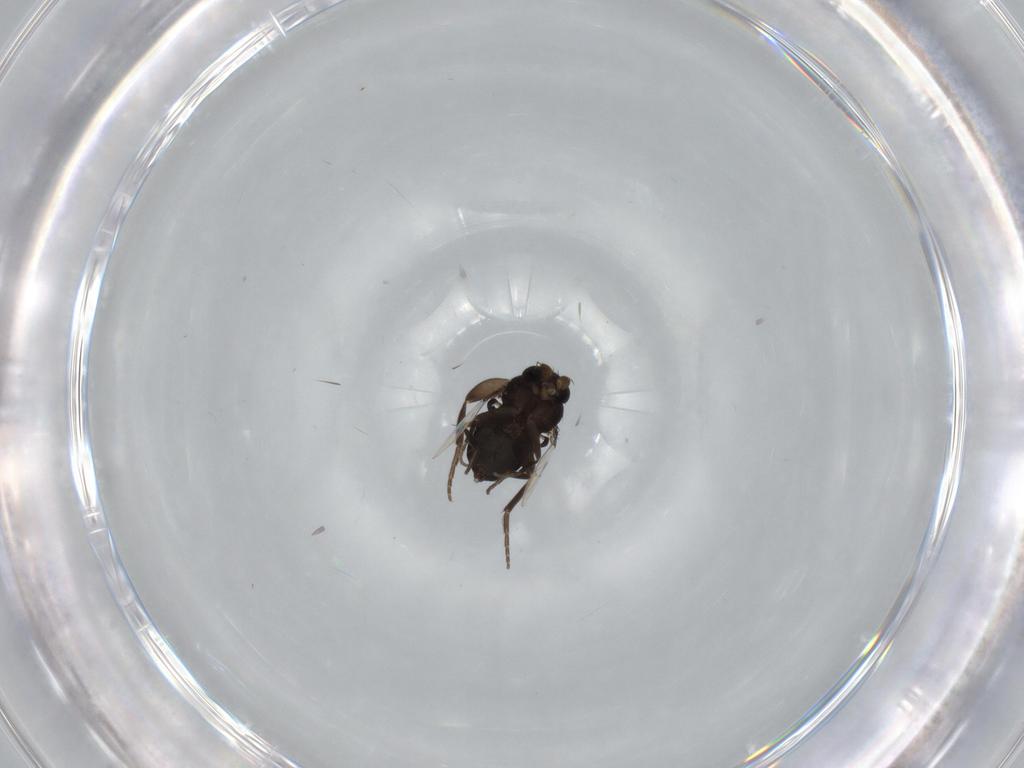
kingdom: Animalia
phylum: Arthropoda
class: Insecta
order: Diptera
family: Phoridae
